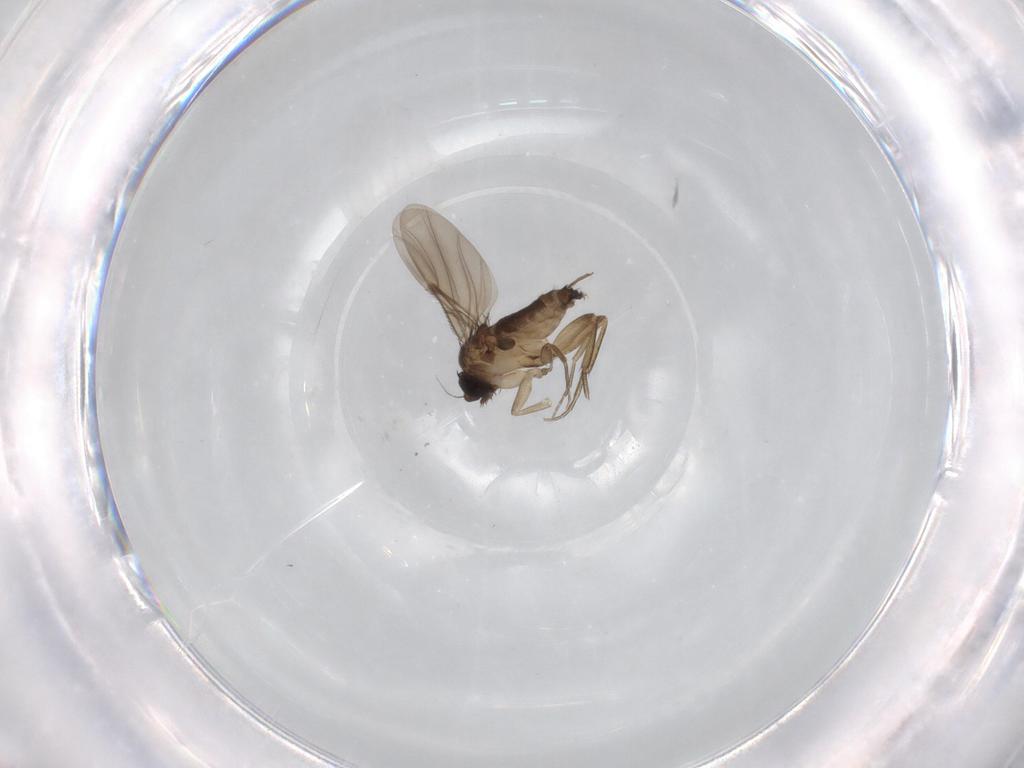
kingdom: Animalia
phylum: Arthropoda
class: Insecta
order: Diptera
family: Phoridae
